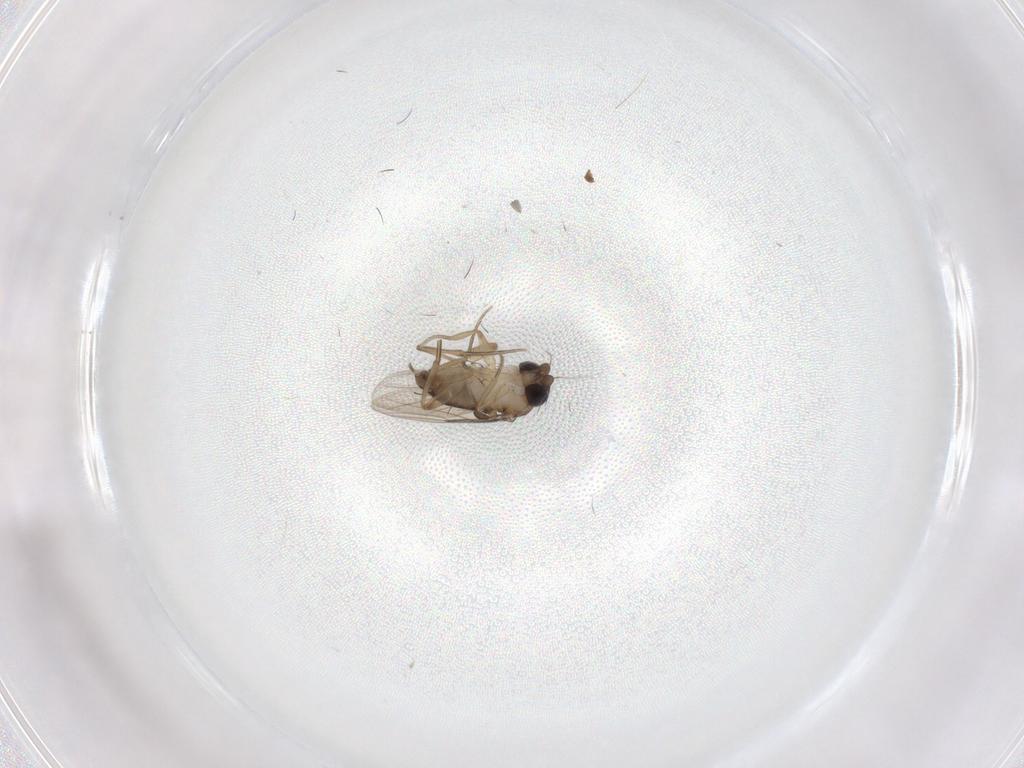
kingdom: Animalia
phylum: Arthropoda
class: Insecta
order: Diptera
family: Phoridae
